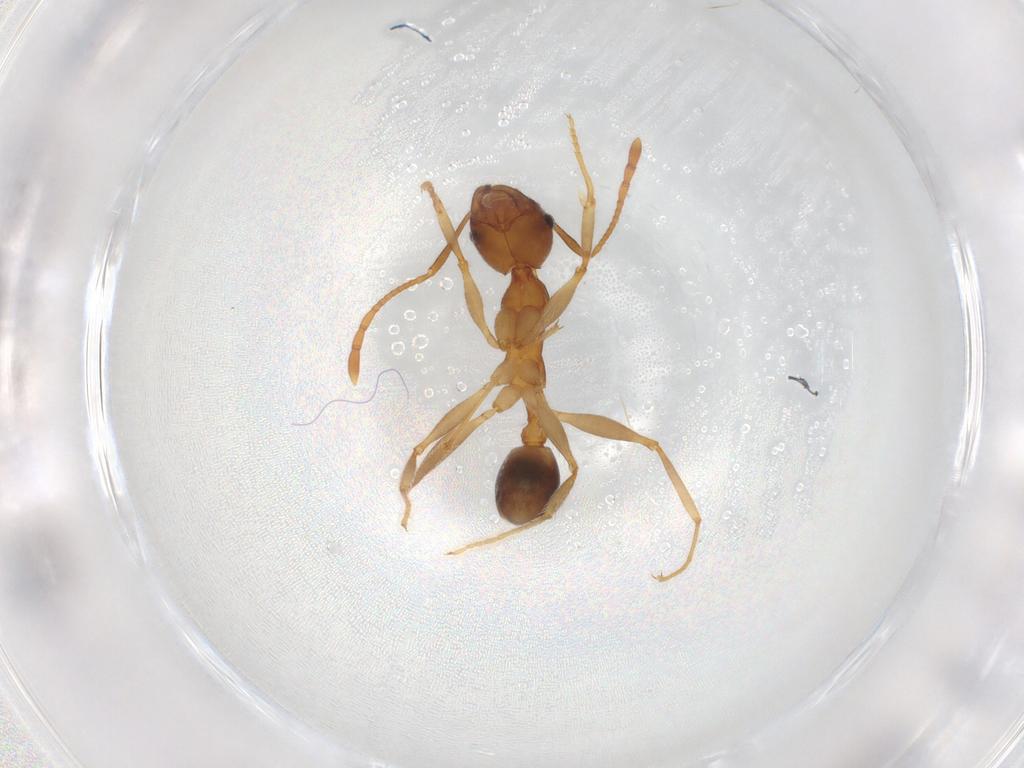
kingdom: Animalia
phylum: Arthropoda
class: Insecta
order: Hymenoptera
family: Formicidae
